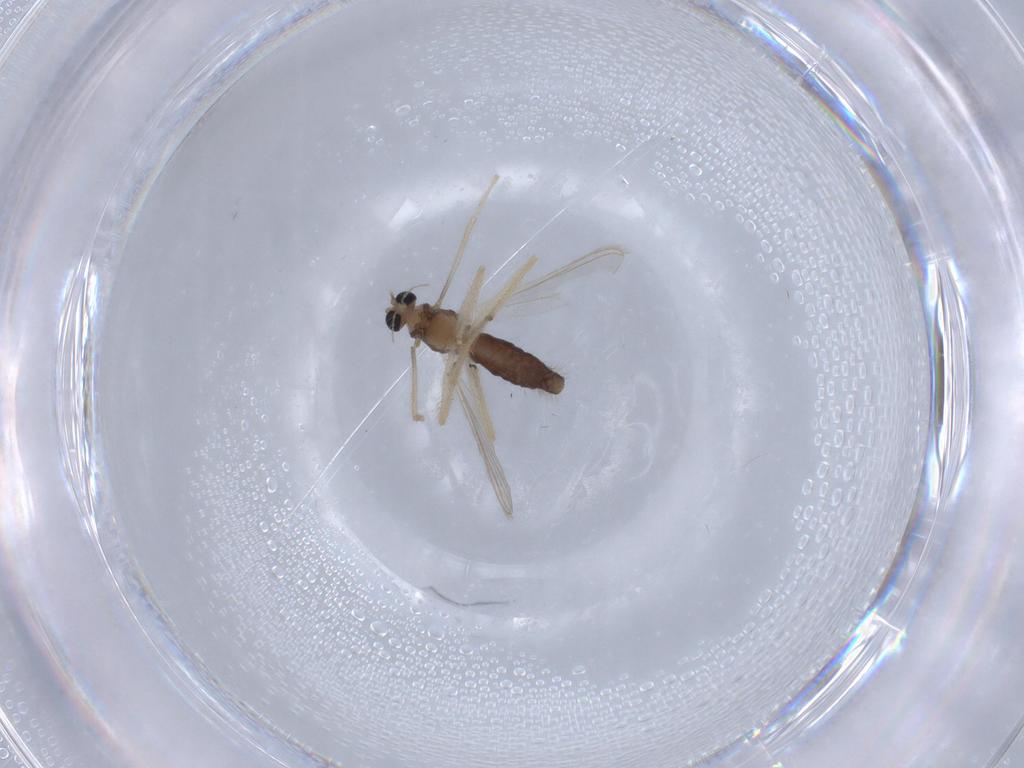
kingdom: Animalia
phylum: Arthropoda
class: Insecta
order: Diptera
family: Chironomidae
